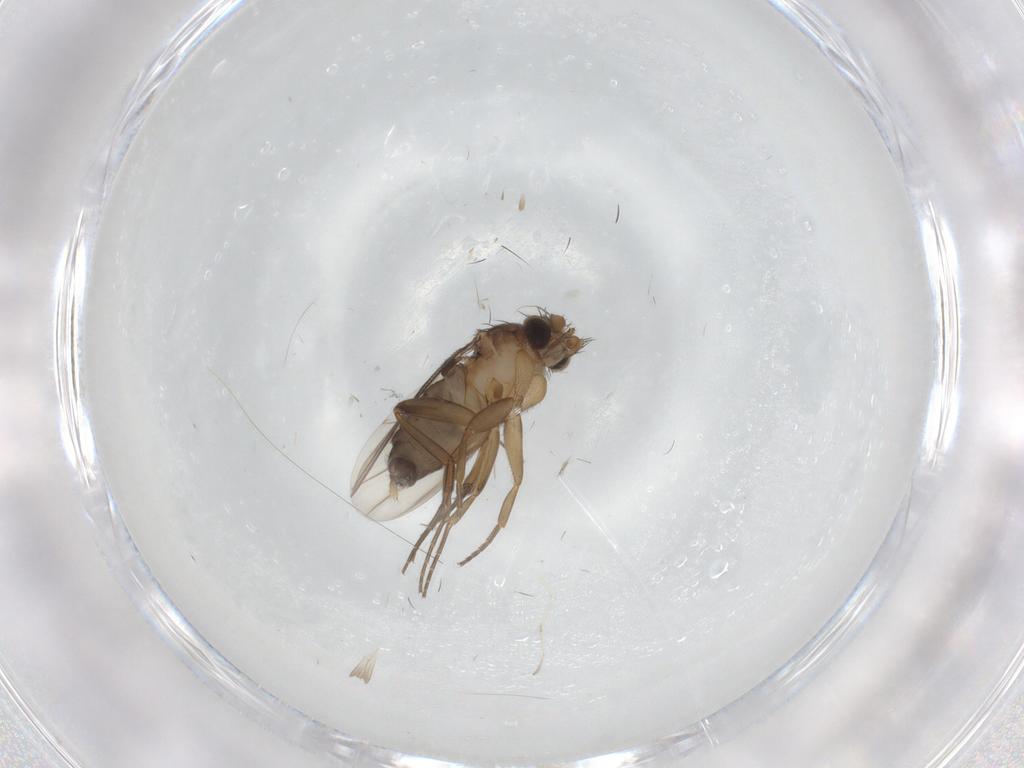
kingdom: Animalia
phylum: Arthropoda
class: Insecta
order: Diptera
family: Phoridae
